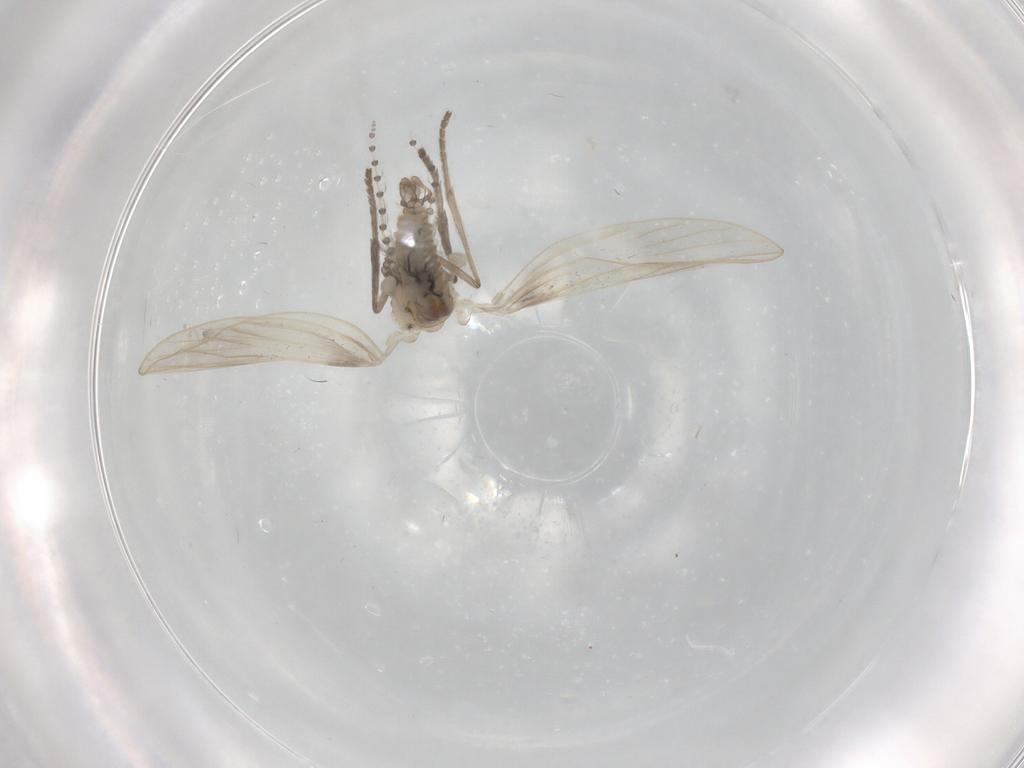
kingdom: Animalia
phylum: Arthropoda
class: Insecta
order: Diptera
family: Psychodidae
